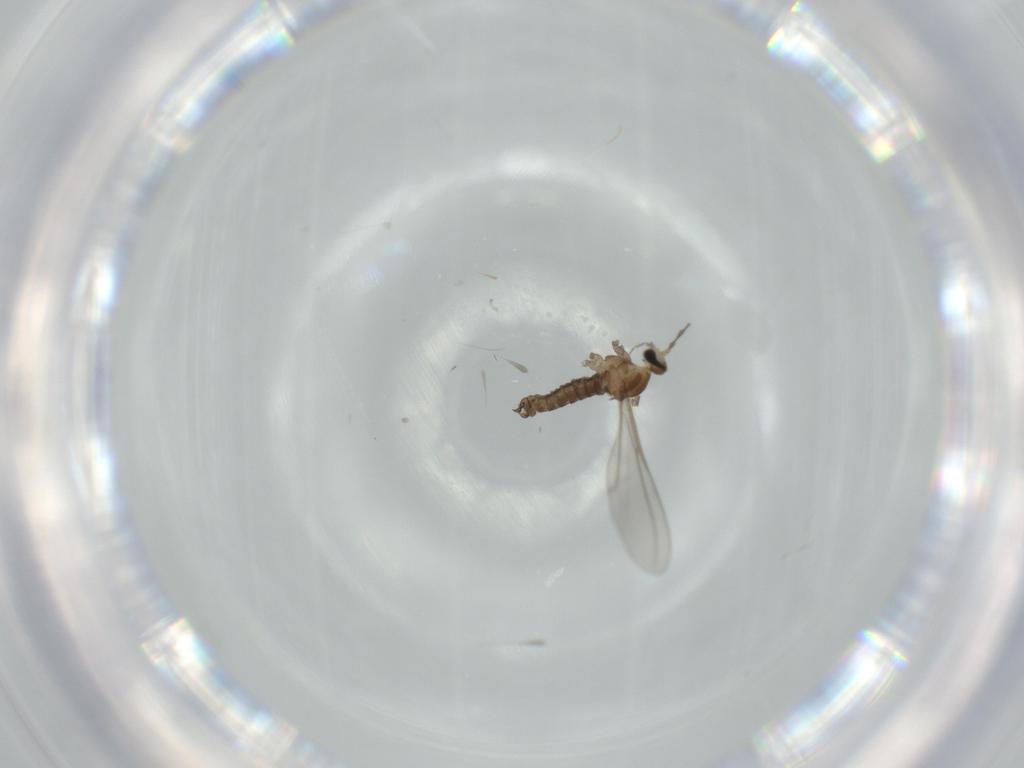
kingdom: Animalia
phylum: Arthropoda
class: Insecta
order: Diptera
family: Cecidomyiidae
